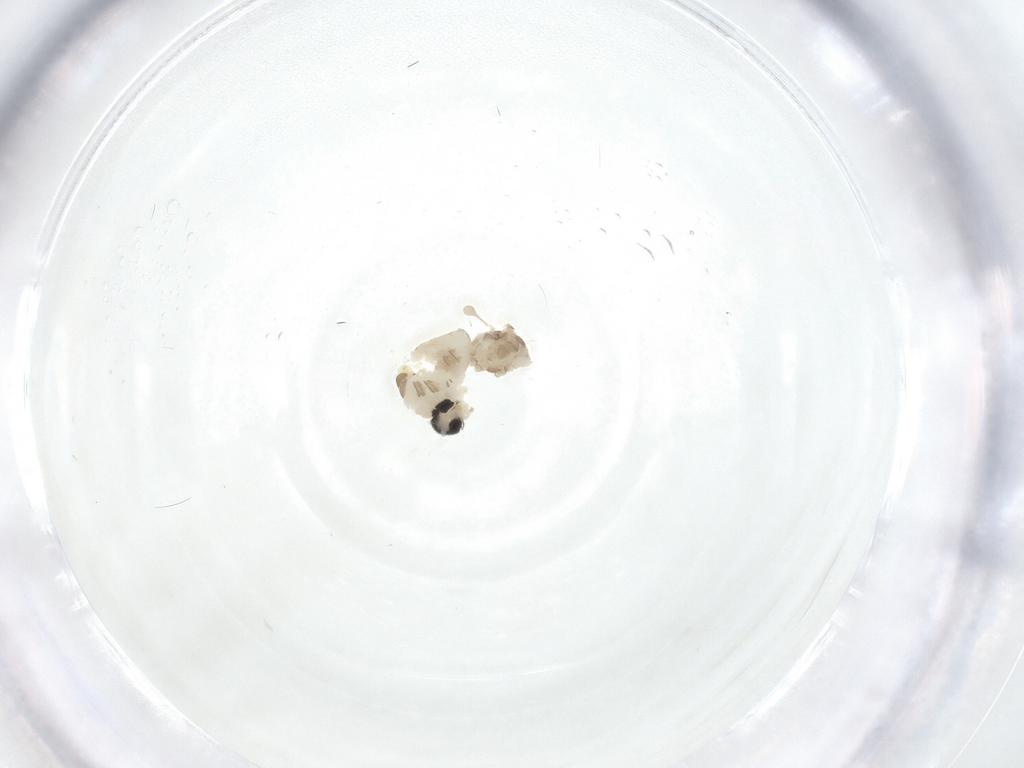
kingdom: Animalia
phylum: Arthropoda
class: Insecta
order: Diptera
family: Cecidomyiidae
